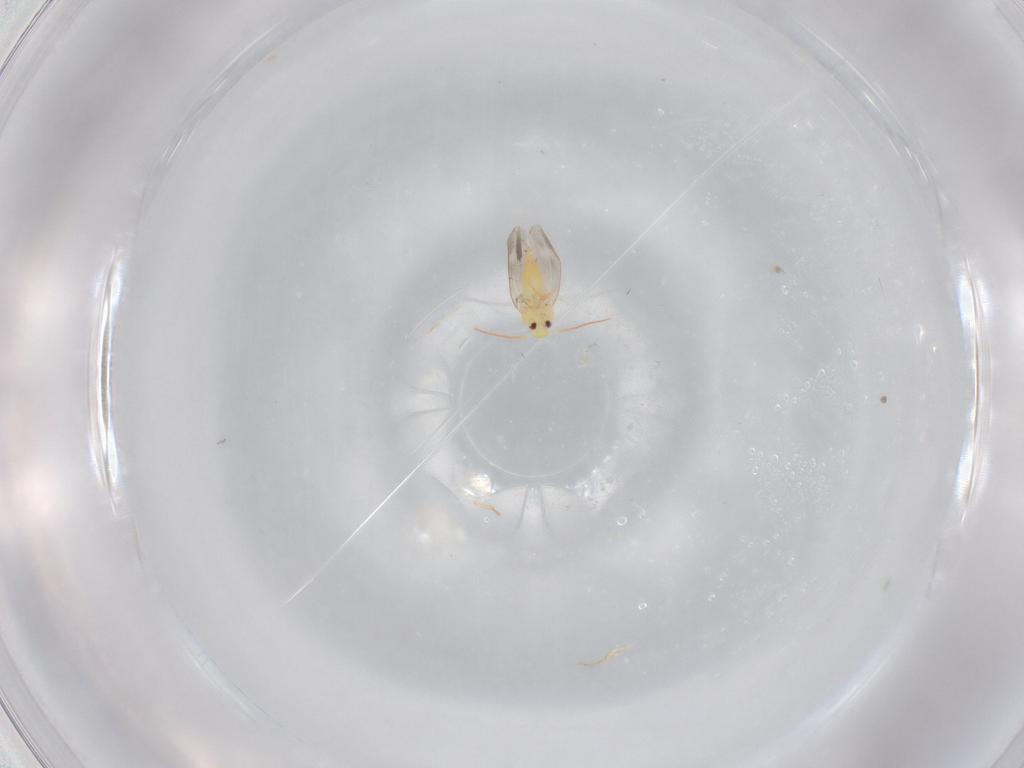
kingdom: Animalia
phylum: Arthropoda
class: Insecta
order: Hemiptera
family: Aleyrodidae
